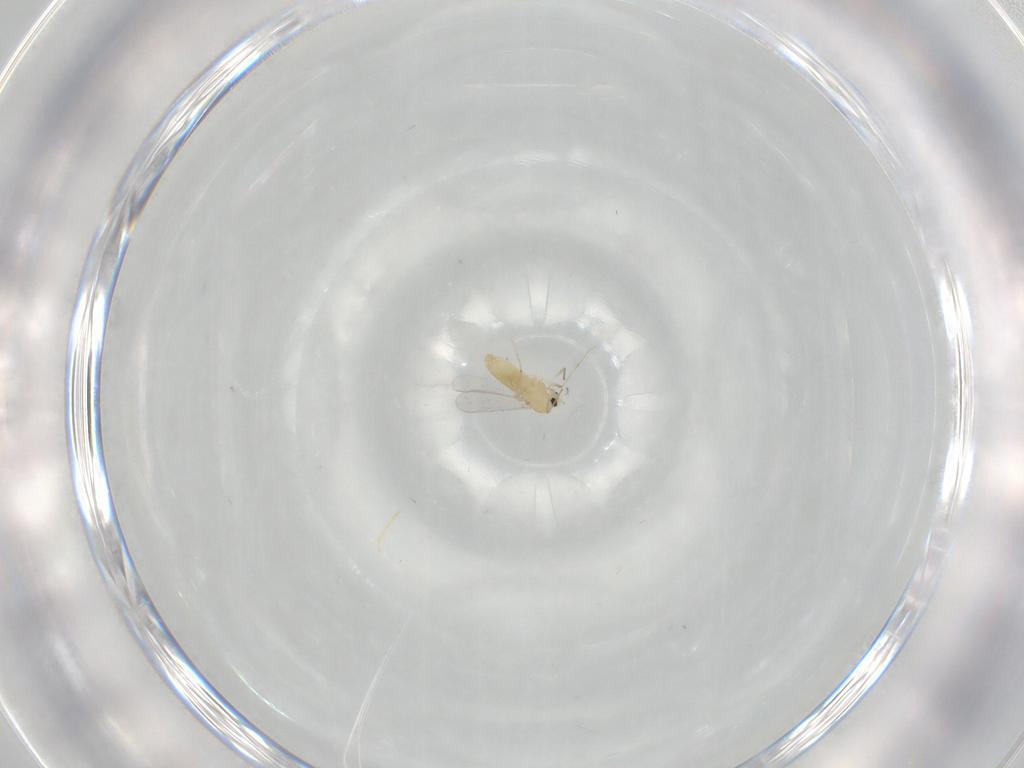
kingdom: Animalia
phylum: Arthropoda
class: Insecta
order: Diptera
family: Chironomidae
